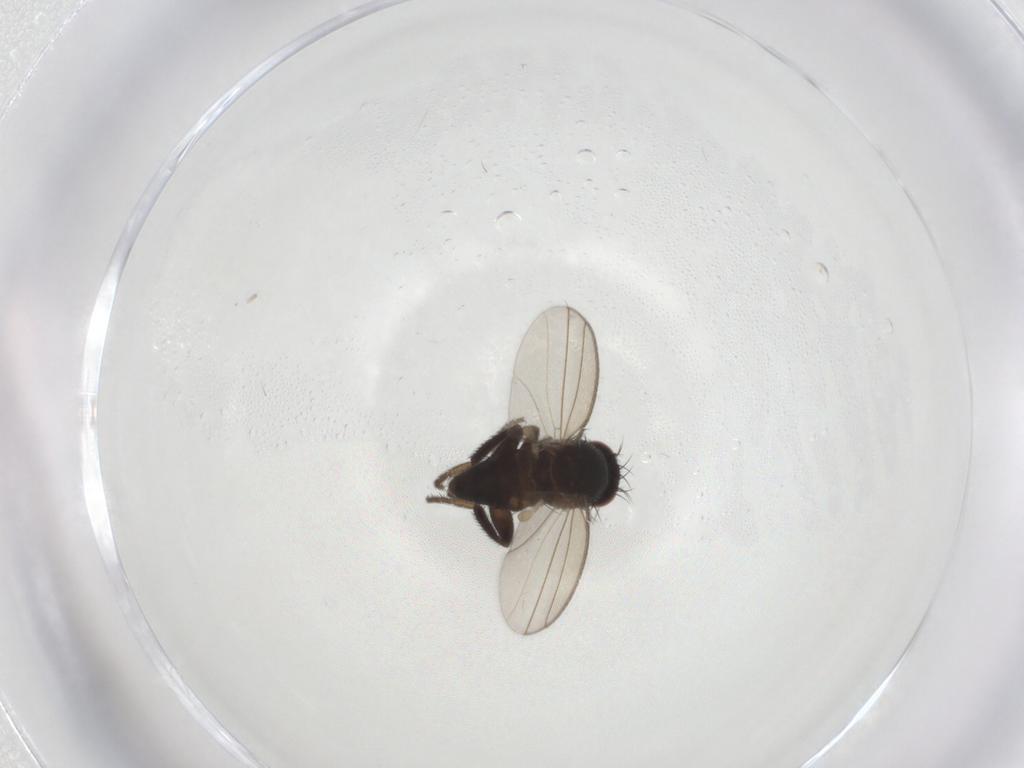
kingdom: Animalia
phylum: Arthropoda
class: Insecta
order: Diptera
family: Milichiidae
